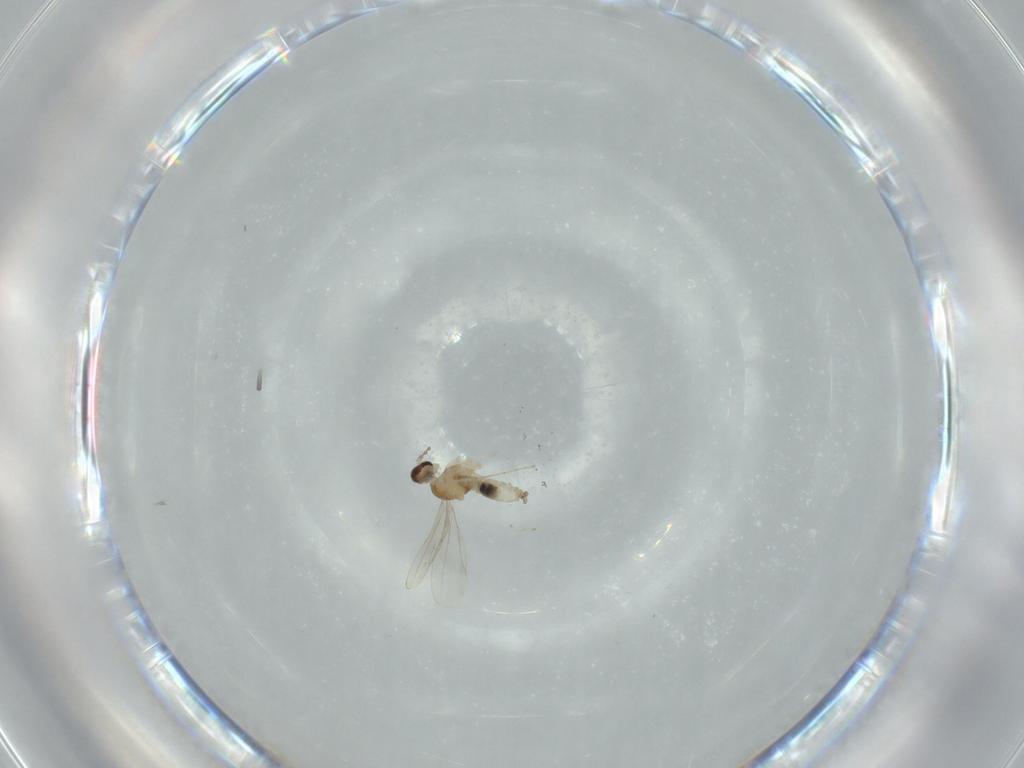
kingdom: Animalia
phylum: Arthropoda
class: Insecta
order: Diptera
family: Cecidomyiidae
